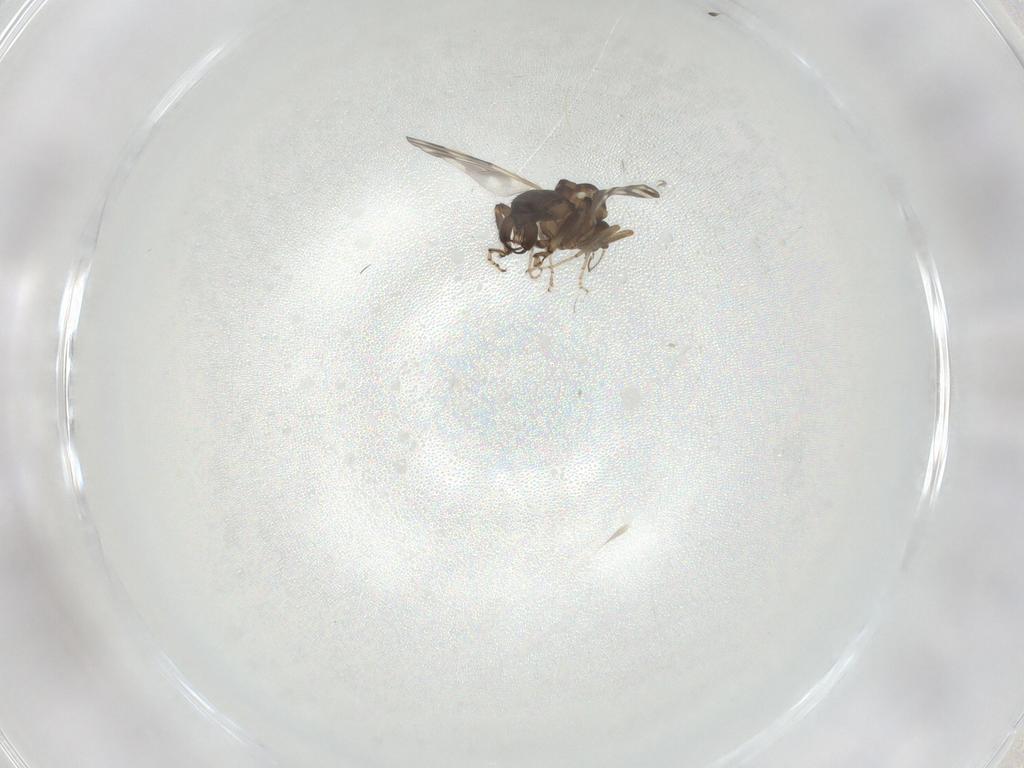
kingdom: Animalia
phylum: Arthropoda
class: Insecta
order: Diptera
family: Ceratopogonidae
